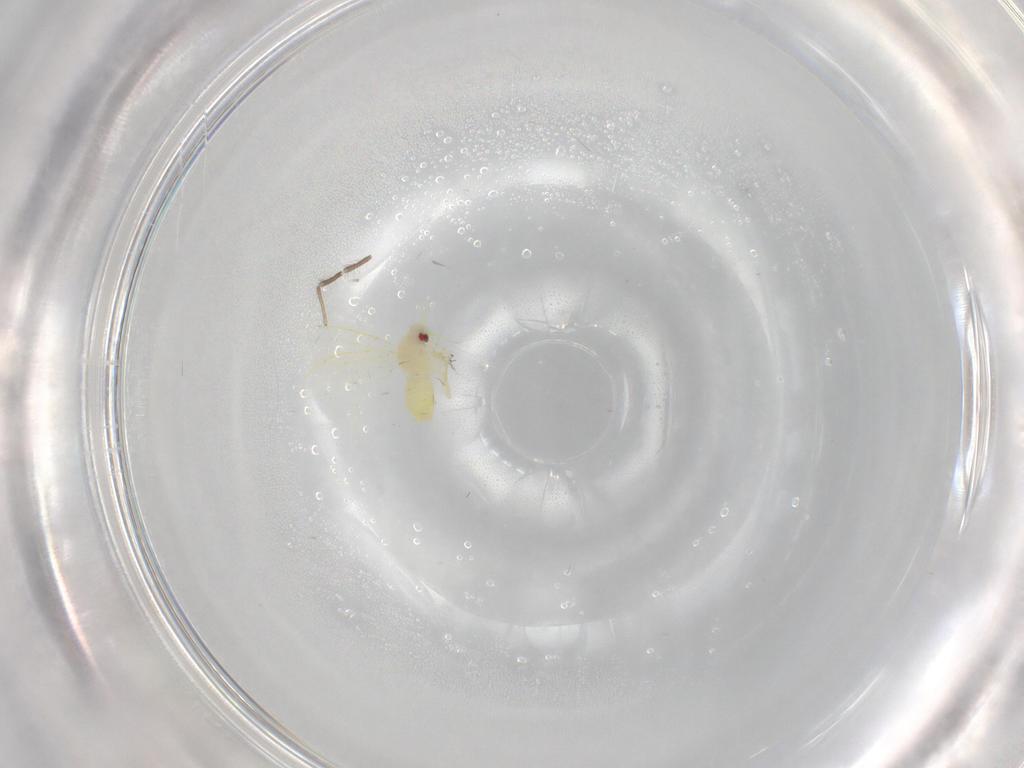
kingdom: Animalia
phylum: Arthropoda
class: Insecta
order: Hemiptera
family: Aleyrodidae
